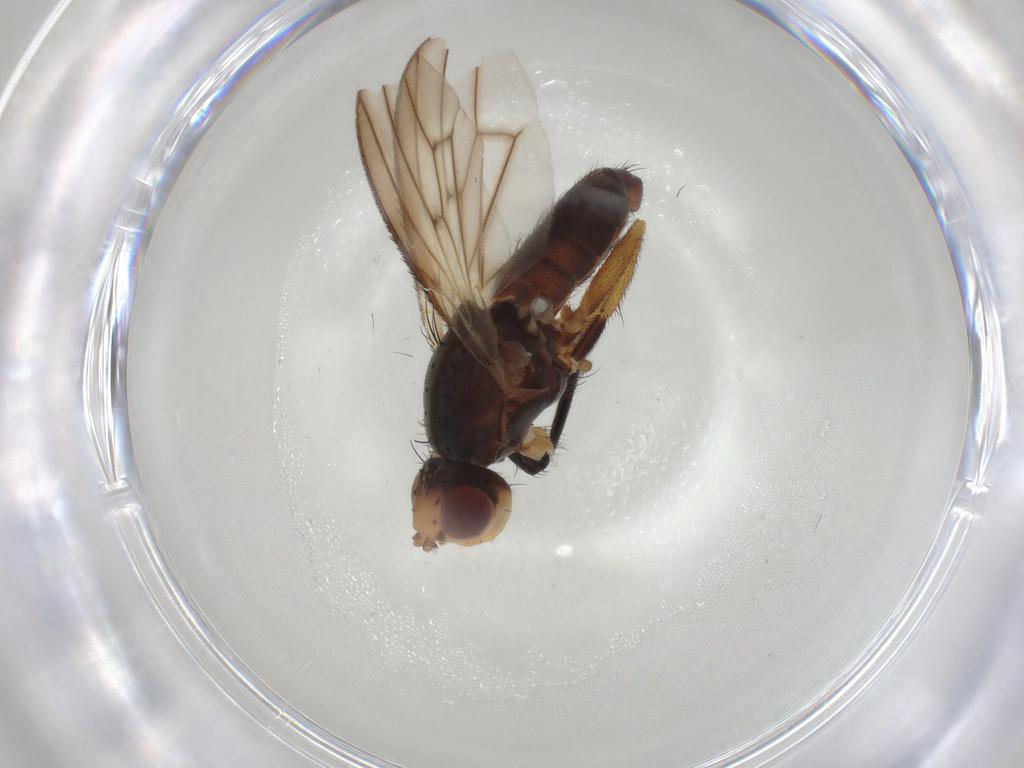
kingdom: Animalia
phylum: Arthropoda
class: Insecta
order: Diptera
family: Heleomyzidae
